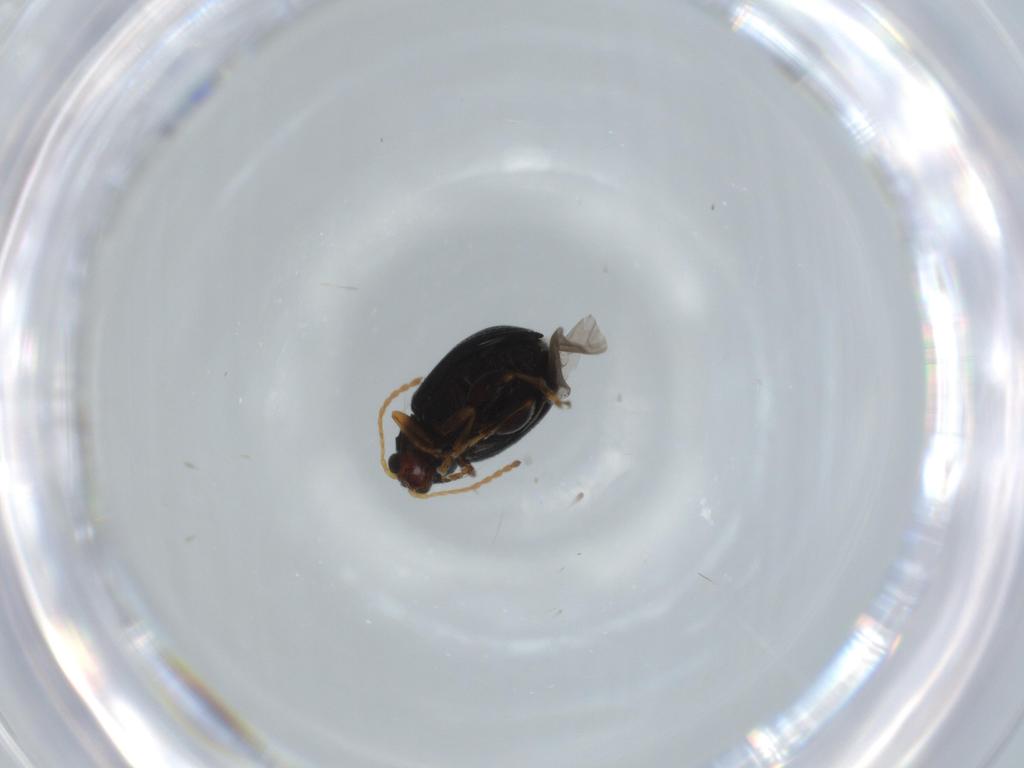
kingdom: Animalia
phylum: Arthropoda
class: Insecta
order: Coleoptera
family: Chrysomelidae
